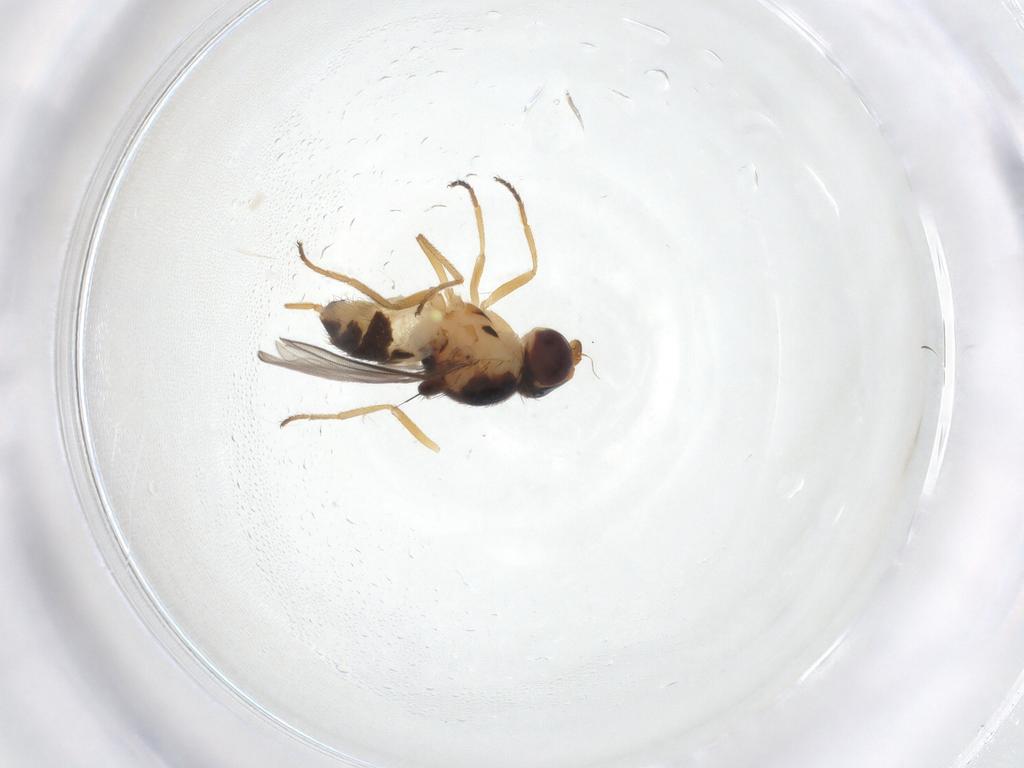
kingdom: Animalia
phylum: Arthropoda
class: Insecta
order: Diptera
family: Chloropidae
